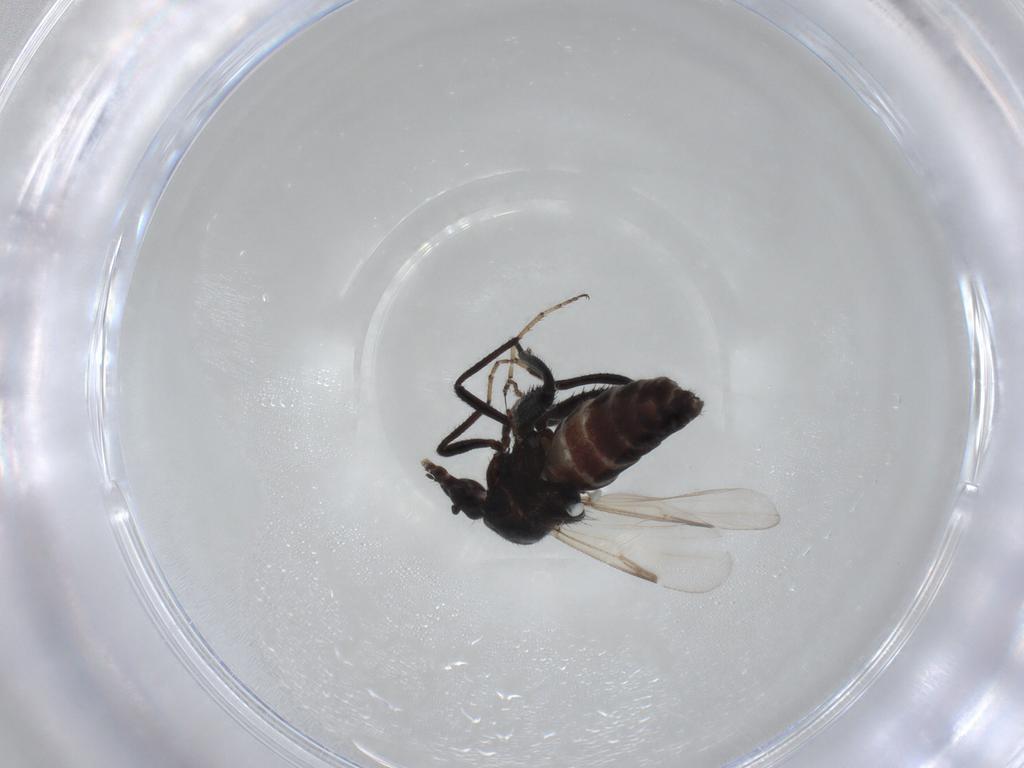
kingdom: Animalia
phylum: Arthropoda
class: Insecta
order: Diptera
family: Ceratopogonidae
